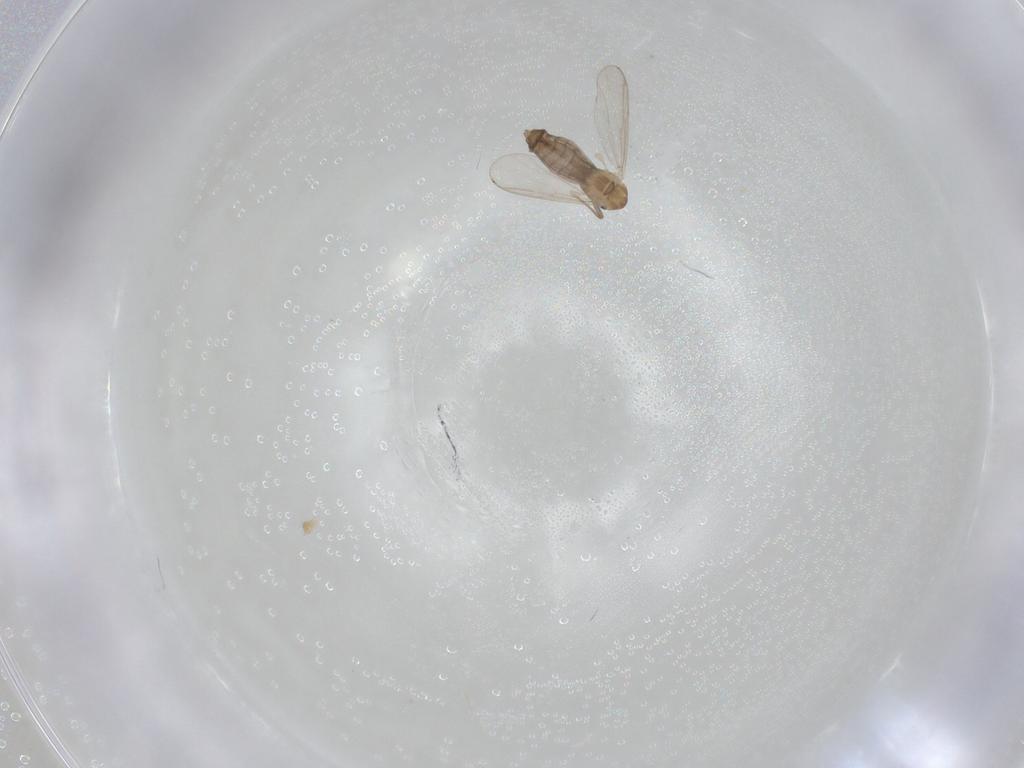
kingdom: Animalia
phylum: Arthropoda
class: Insecta
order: Diptera
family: Chironomidae
